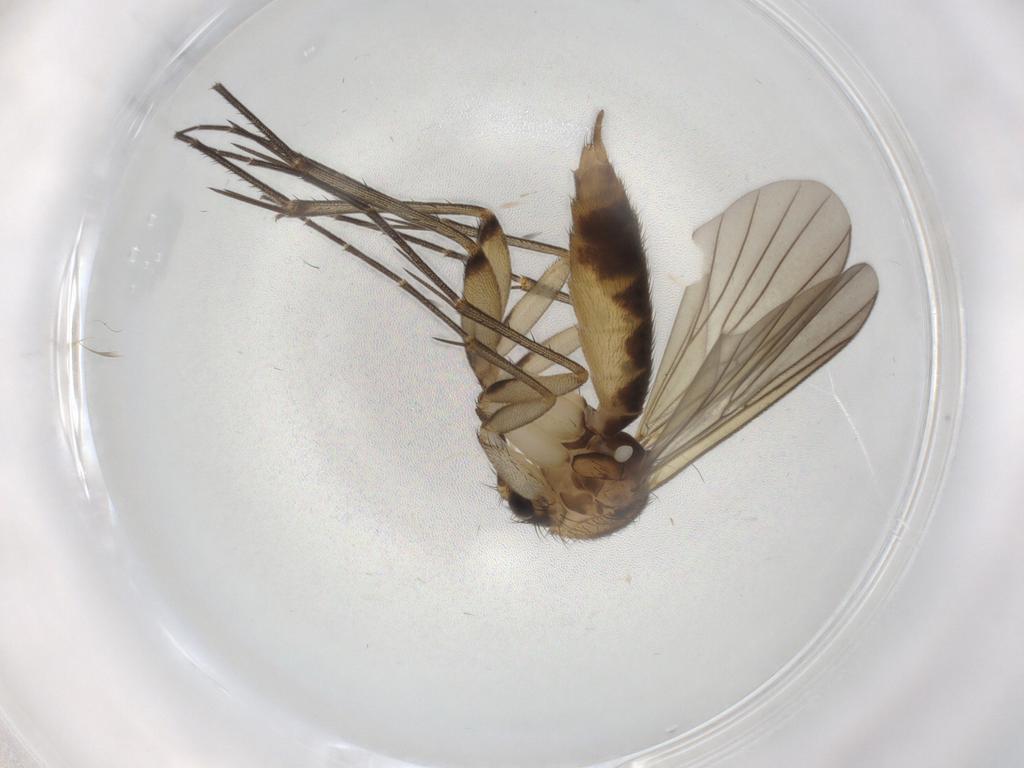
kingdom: Animalia
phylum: Arthropoda
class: Insecta
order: Diptera
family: Mycetophilidae
